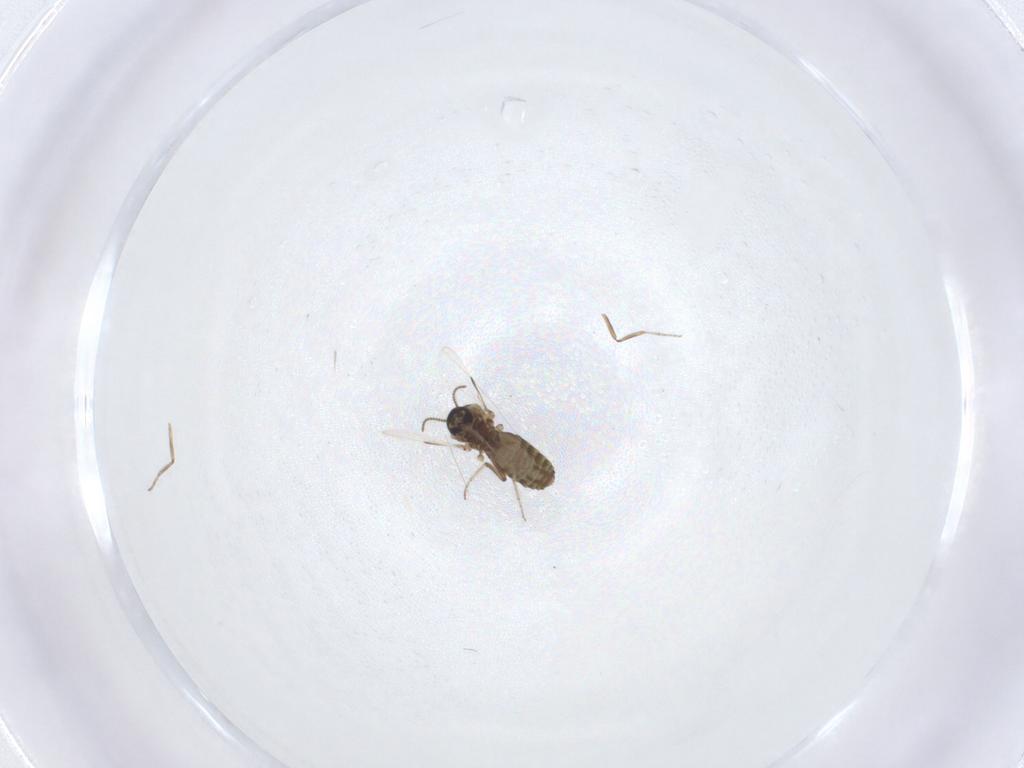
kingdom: Animalia
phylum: Arthropoda
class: Insecta
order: Diptera
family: Ceratopogonidae
